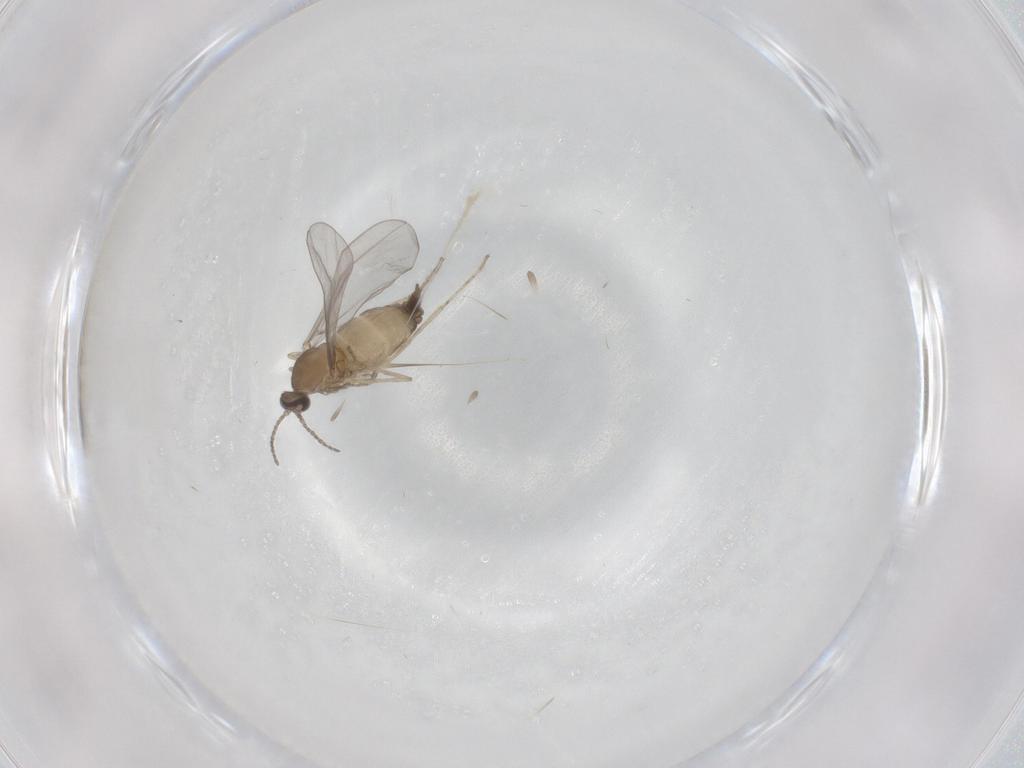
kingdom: Animalia
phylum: Arthropoda
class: Insecta
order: Diptera
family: Cecidomyiidae
